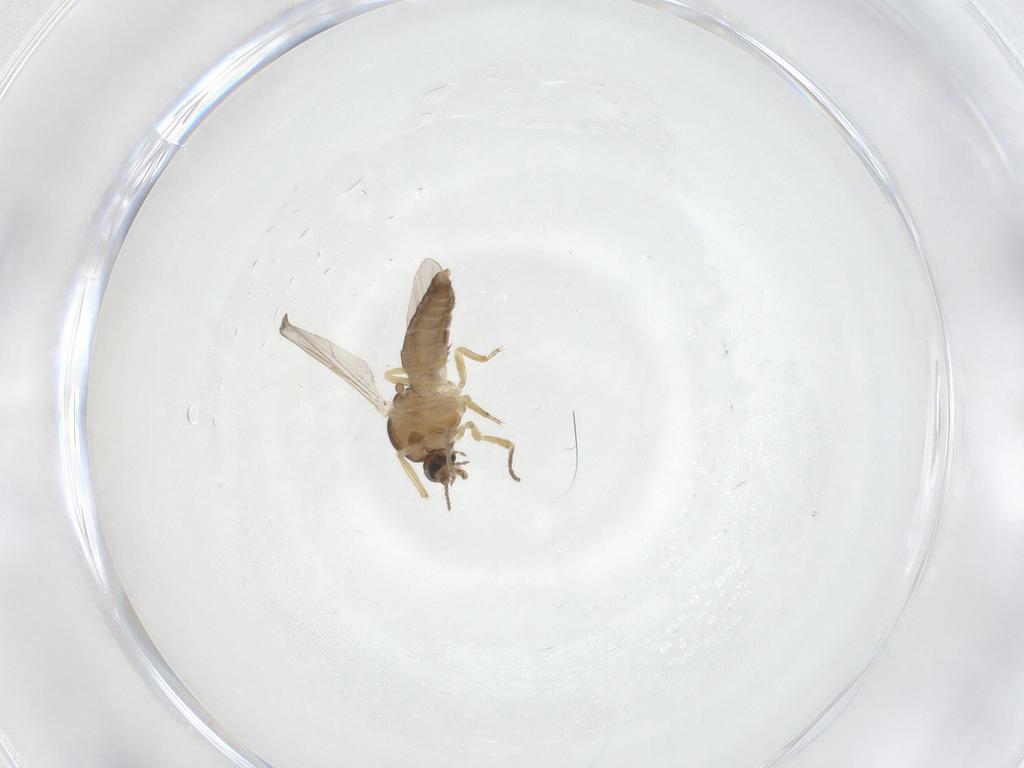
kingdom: Animalia
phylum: Arthropoda
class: Insecta
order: Diptera
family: Ceratopogonidae
